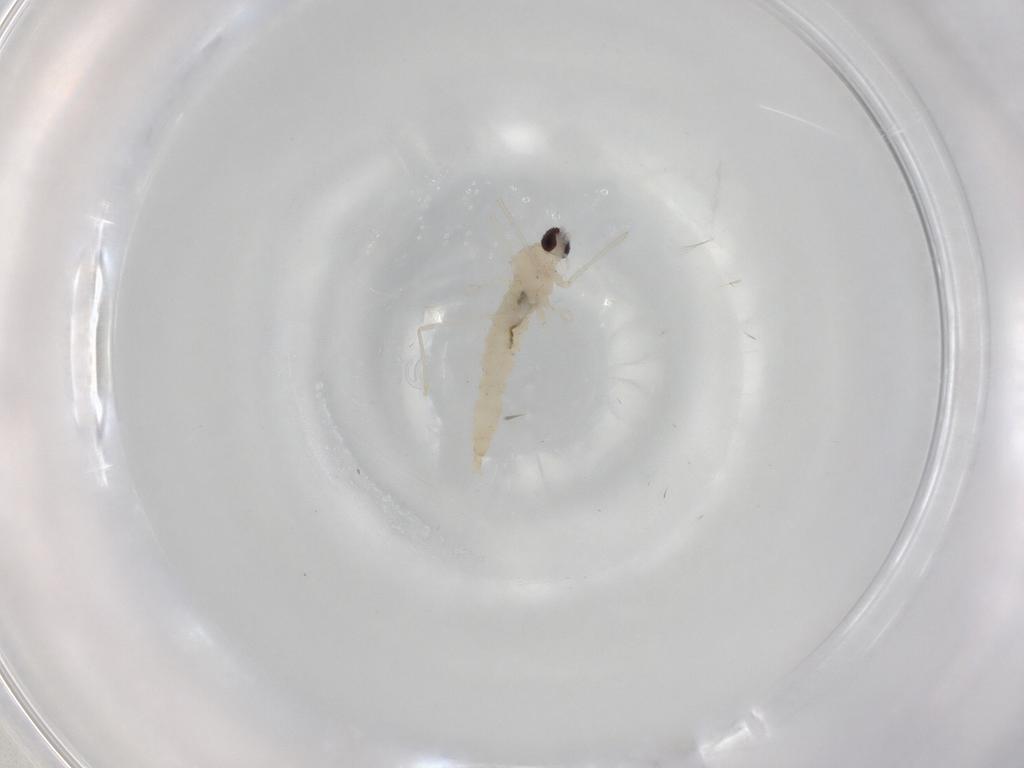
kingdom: Animalia
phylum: Arthropoda
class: Insecta
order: Diptera
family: Cecidomyiidae
